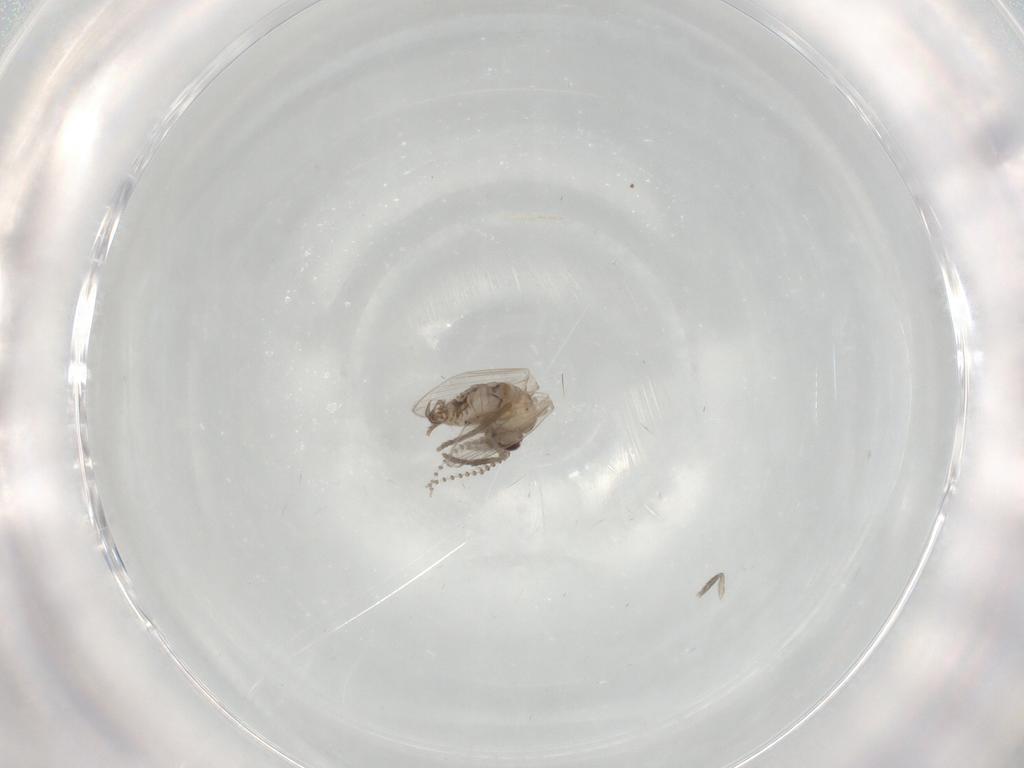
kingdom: Animalia
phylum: Arthropoda
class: Insecta
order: Diptera
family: Psychodidae
